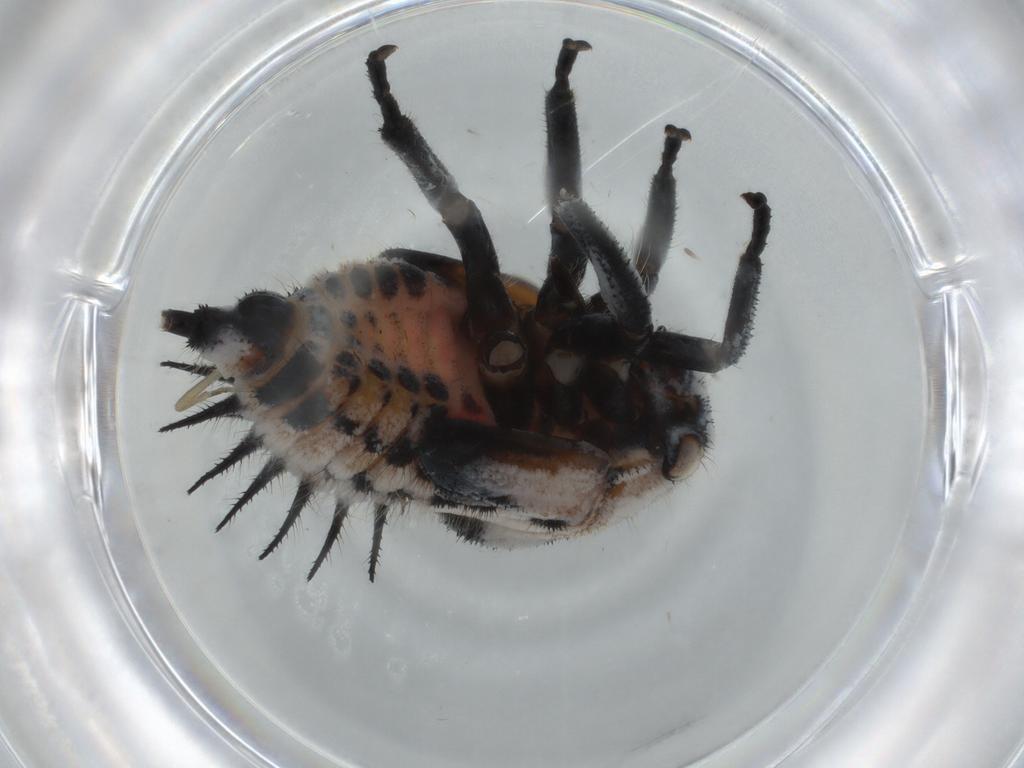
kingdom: Animalia
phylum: Arthropoda
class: Insecta
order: Hemiptera
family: Membracidae
